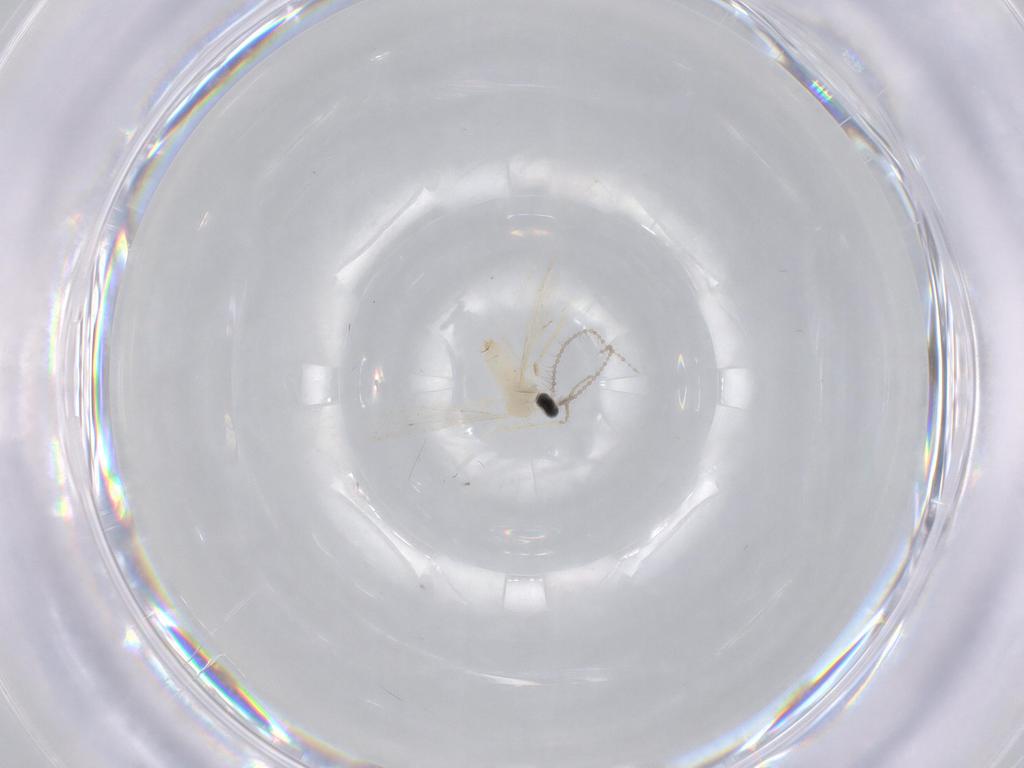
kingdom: Animalia
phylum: Arthropoda
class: Insecta
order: Diptera
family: Cecidomyiidae
